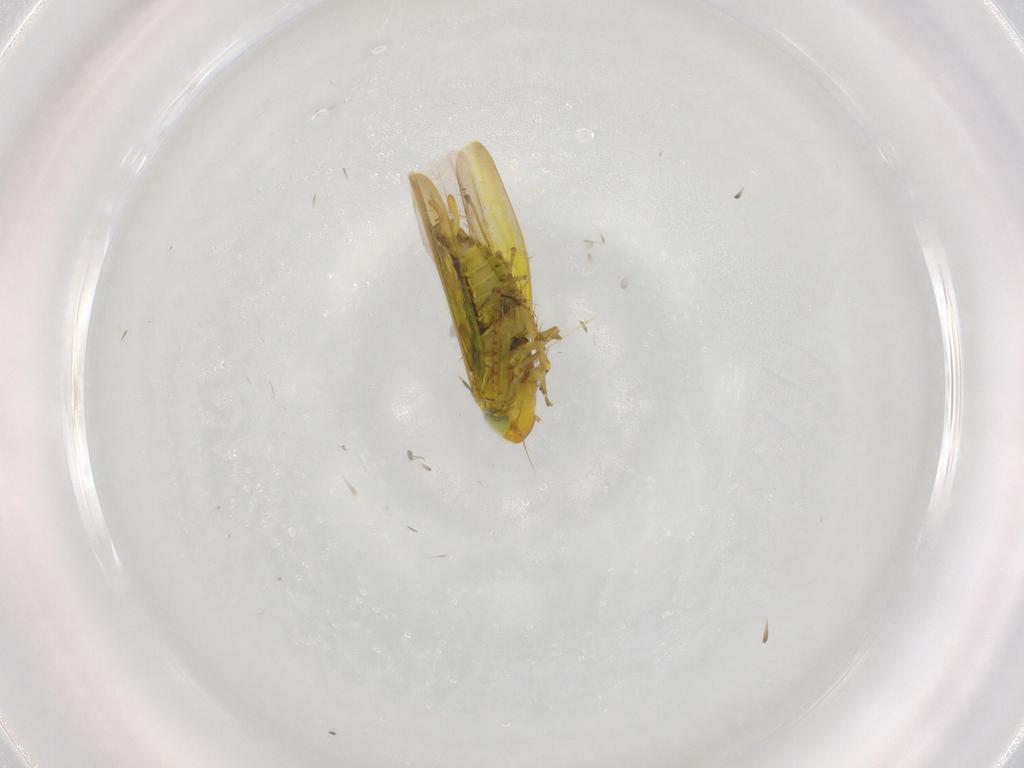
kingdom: Animalia
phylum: Arthropoda
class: Insecta
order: Hemiptera
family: Cicadellidae
